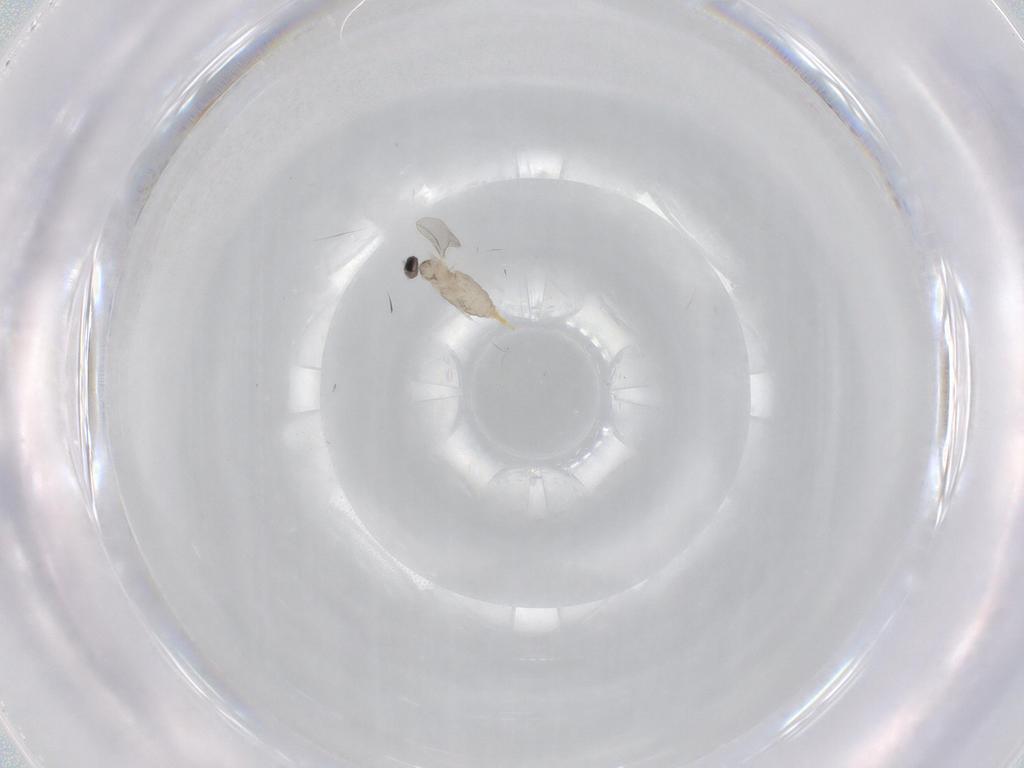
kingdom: Animalia
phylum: Arthropoda
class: Insecta
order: Diptera
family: Cecidomyiidae
